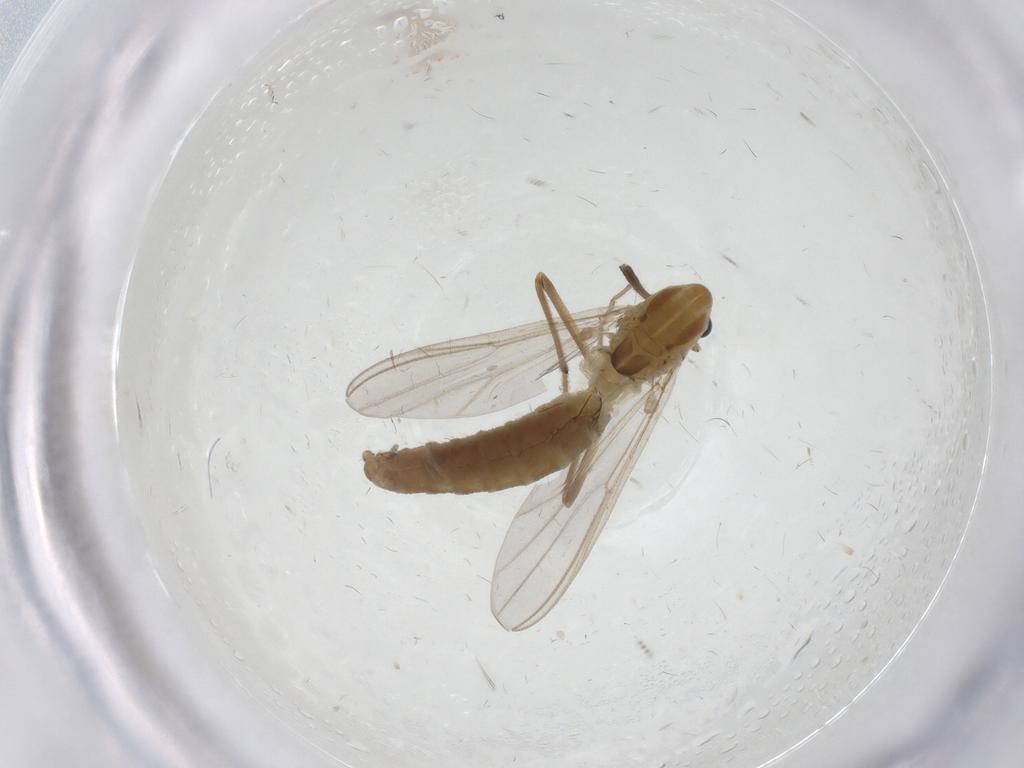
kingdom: Animalia
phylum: Arthropoda
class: Insecta
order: Diptera
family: Chironomidae
